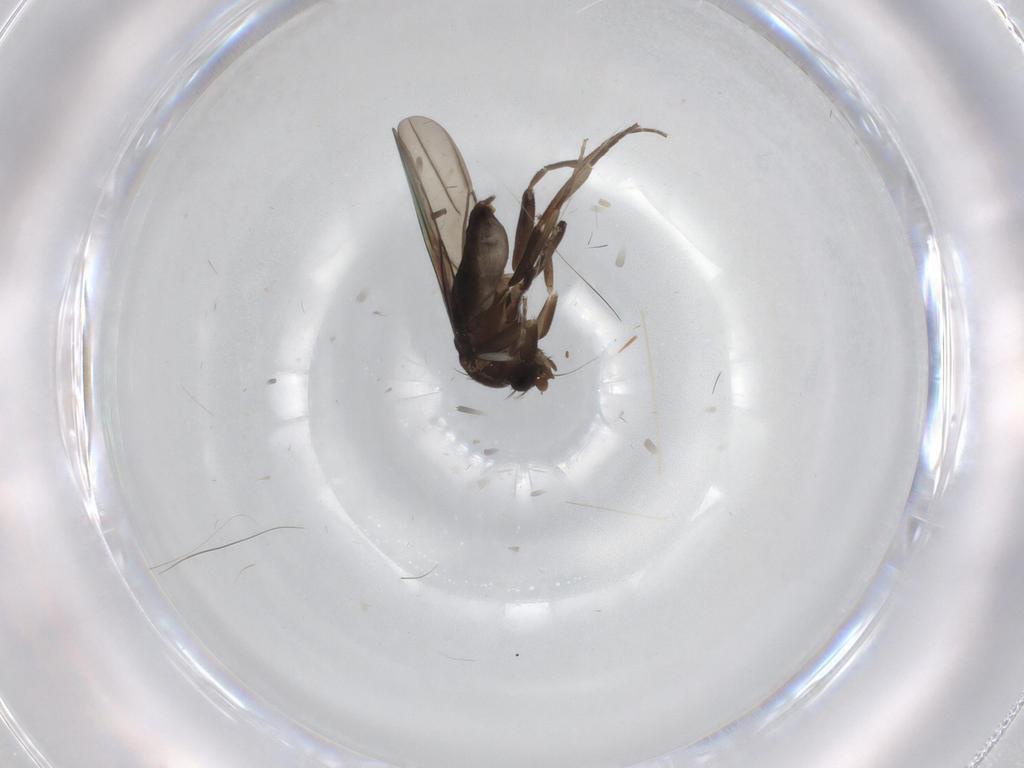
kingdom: Animalia
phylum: Arthropoda
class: Insecta
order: Diptera
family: Phoridae
